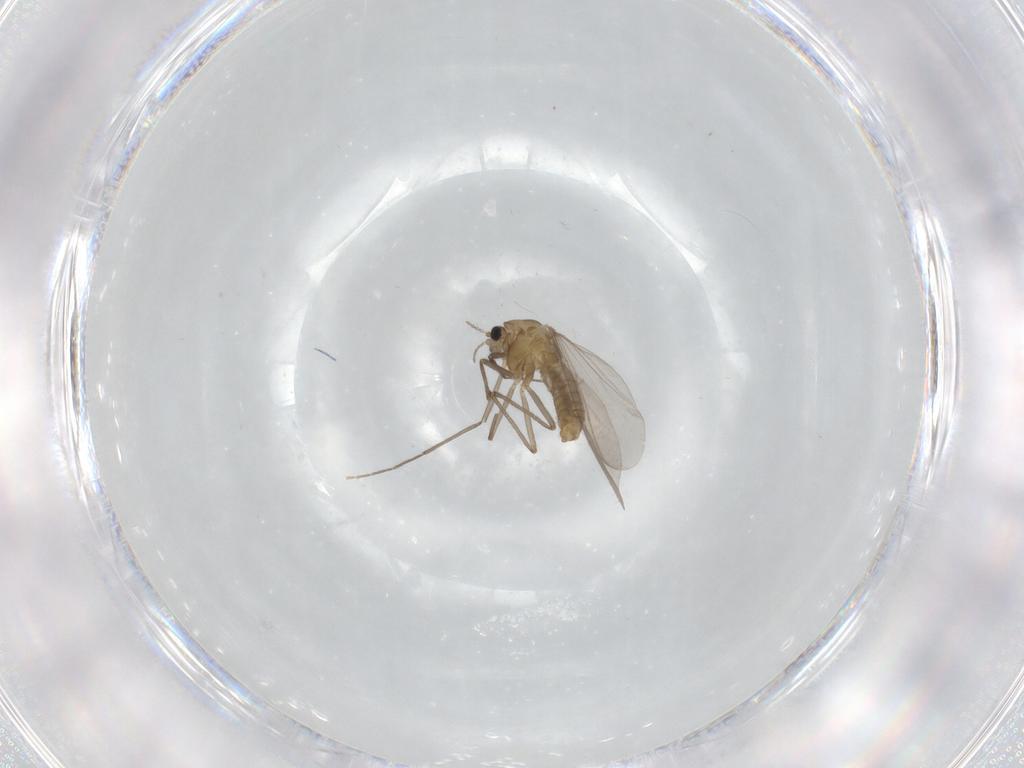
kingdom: Animalia
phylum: Arthropoda
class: Insecta
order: Diptera
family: Chironomidae
